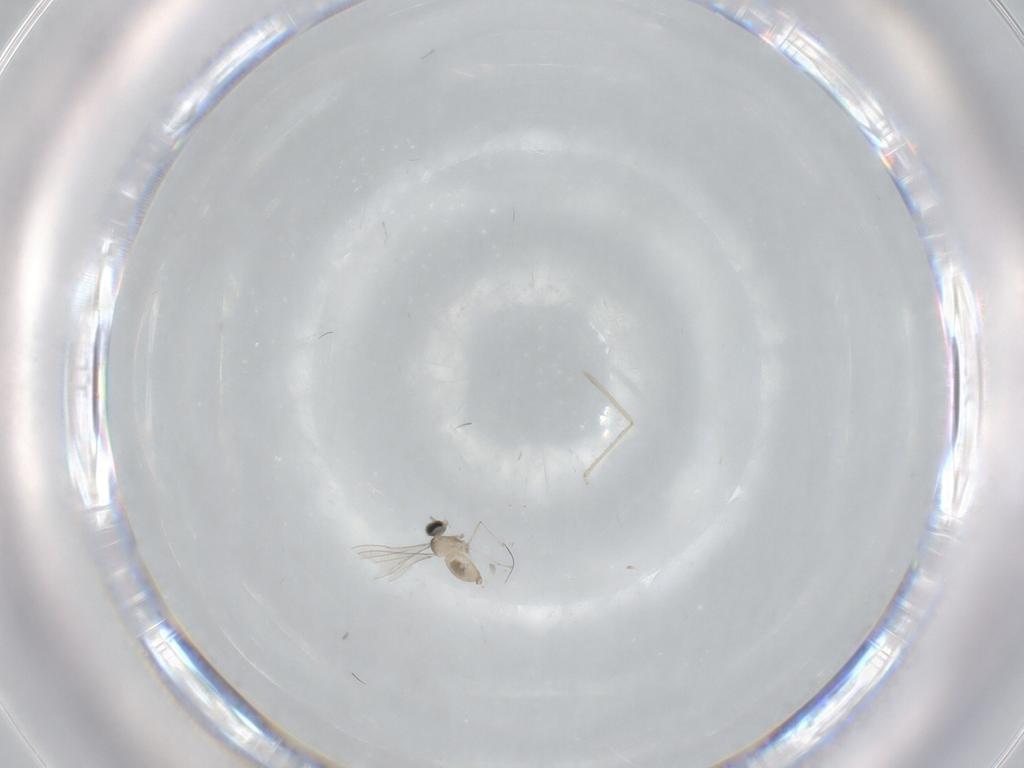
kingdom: Animalia
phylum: Arthropoda
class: Insecta
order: Diptera
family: Cecidomyiidae
